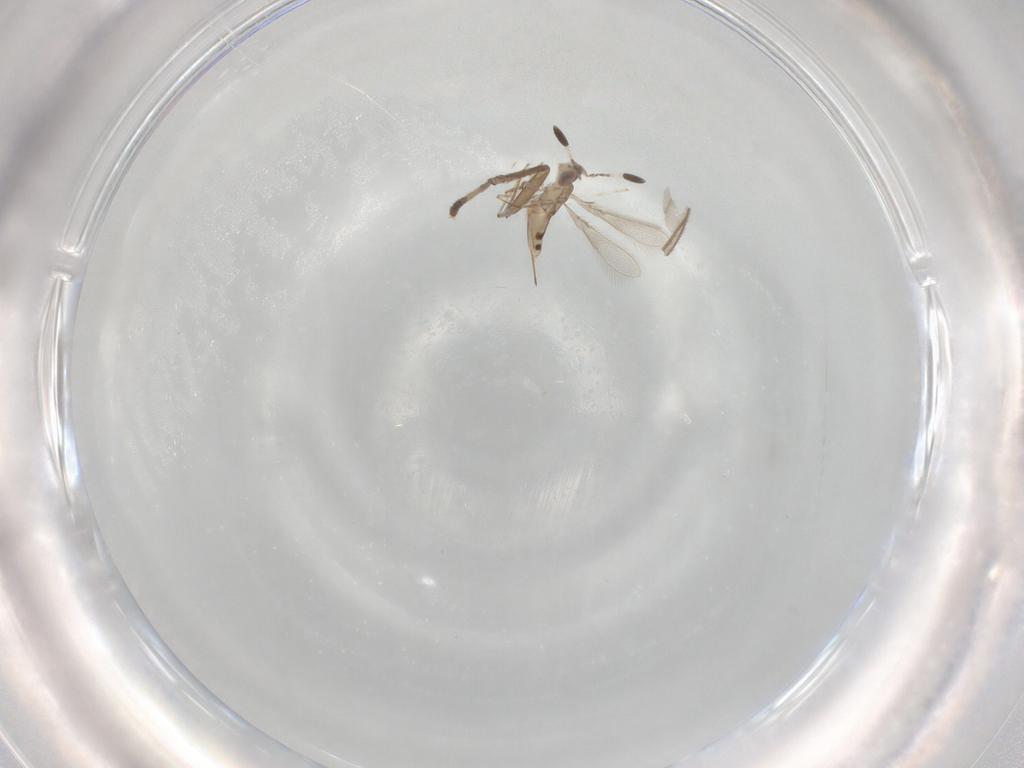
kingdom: Animalia
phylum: Arthropoda
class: Insecta
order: Hymenoptera
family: Mymaridae
